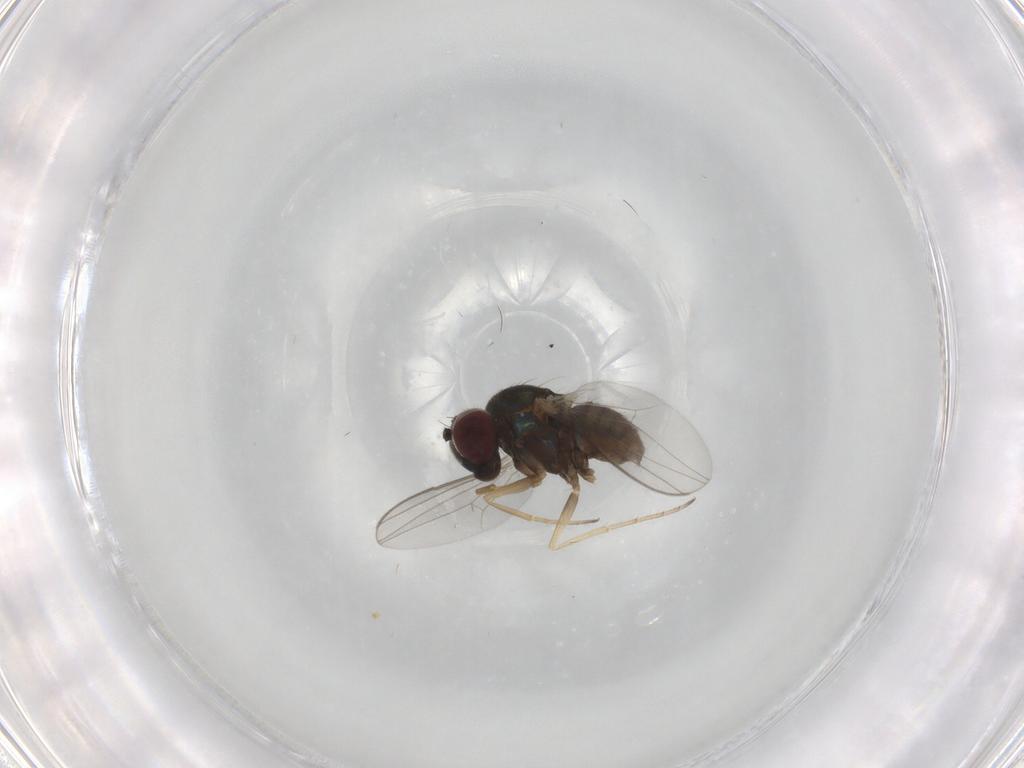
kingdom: Animalia
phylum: Arthropoda
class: Insecta
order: Diptera
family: Dolichopodidae
